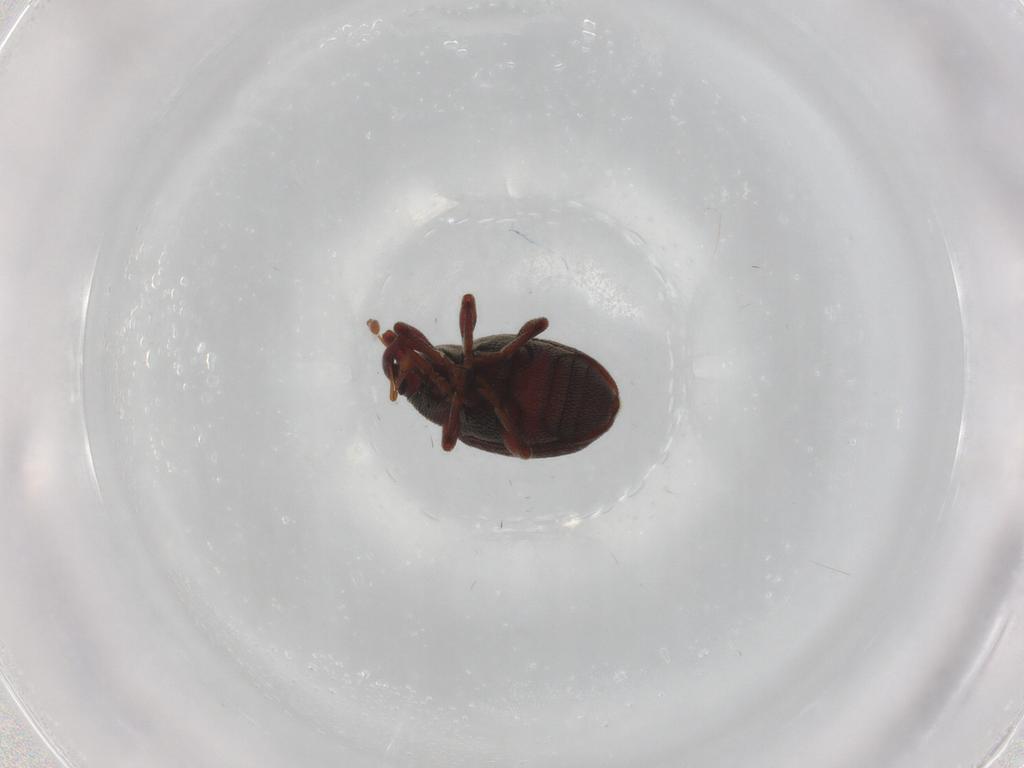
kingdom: Animalia
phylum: Arthropoda
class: Insecta
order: Coleoptera
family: Curculionidae
